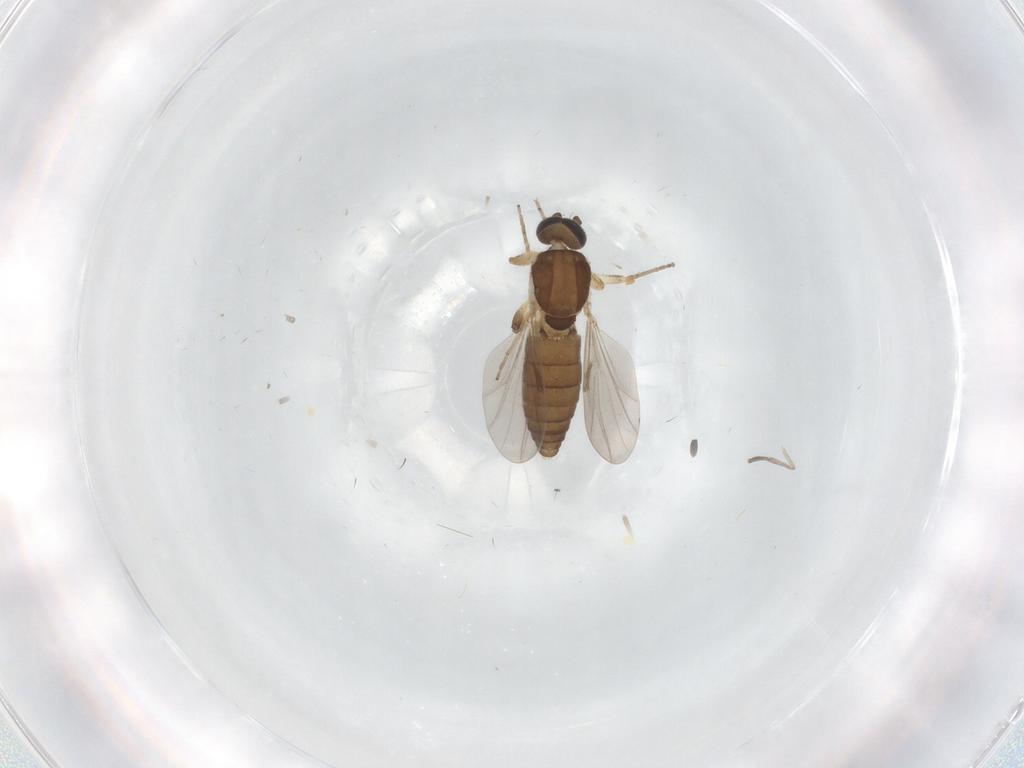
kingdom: Animalia
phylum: Arthropoda
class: Insecta
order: Diptera
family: Ceratopogonidae
